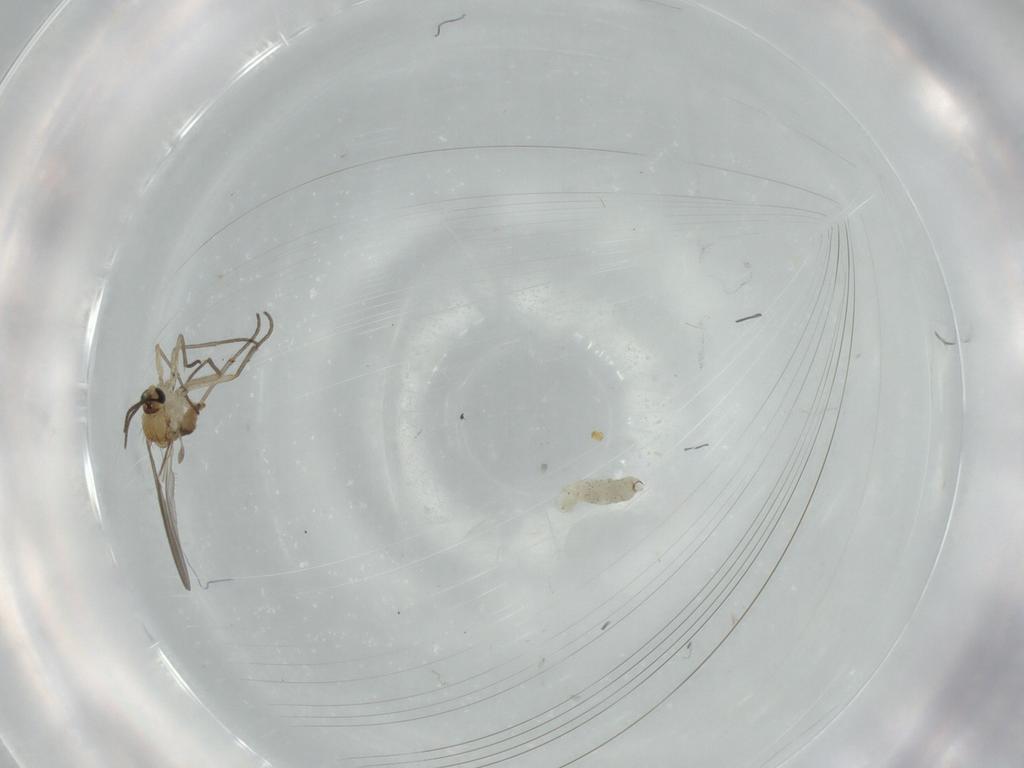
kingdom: Animalia
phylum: Arthropoda
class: Insecta
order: Diptera
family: Sciaridae
